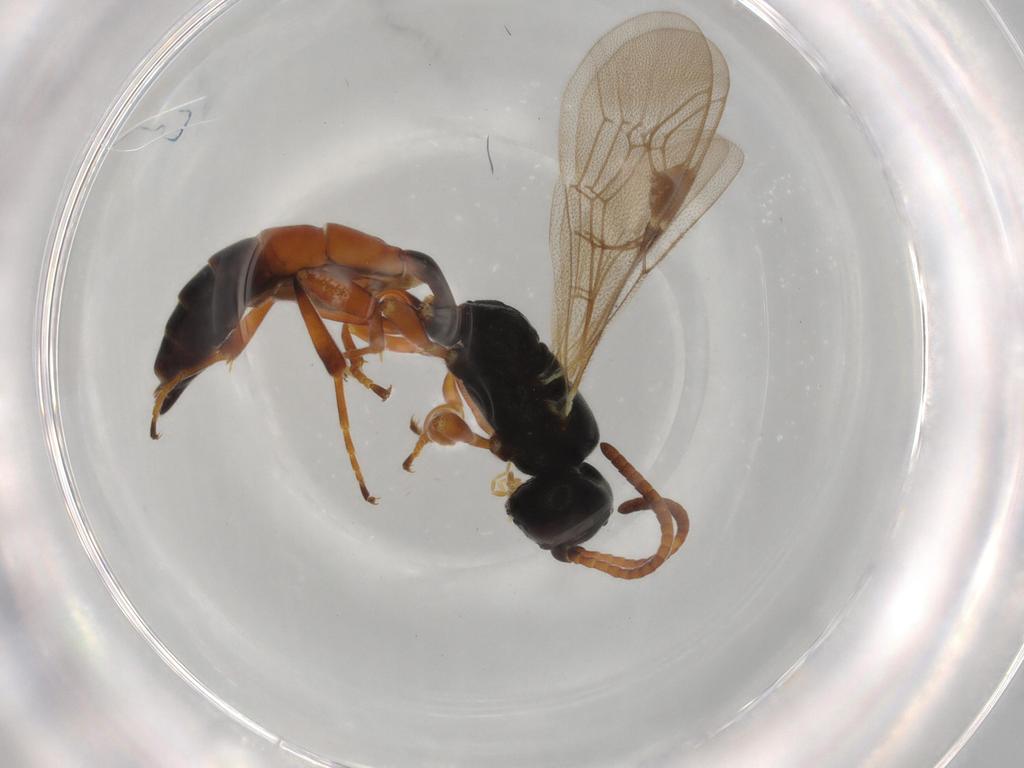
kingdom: Animalia
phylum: Arthropoda
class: Insecta
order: Hymenoptera
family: Ichneumonidae
